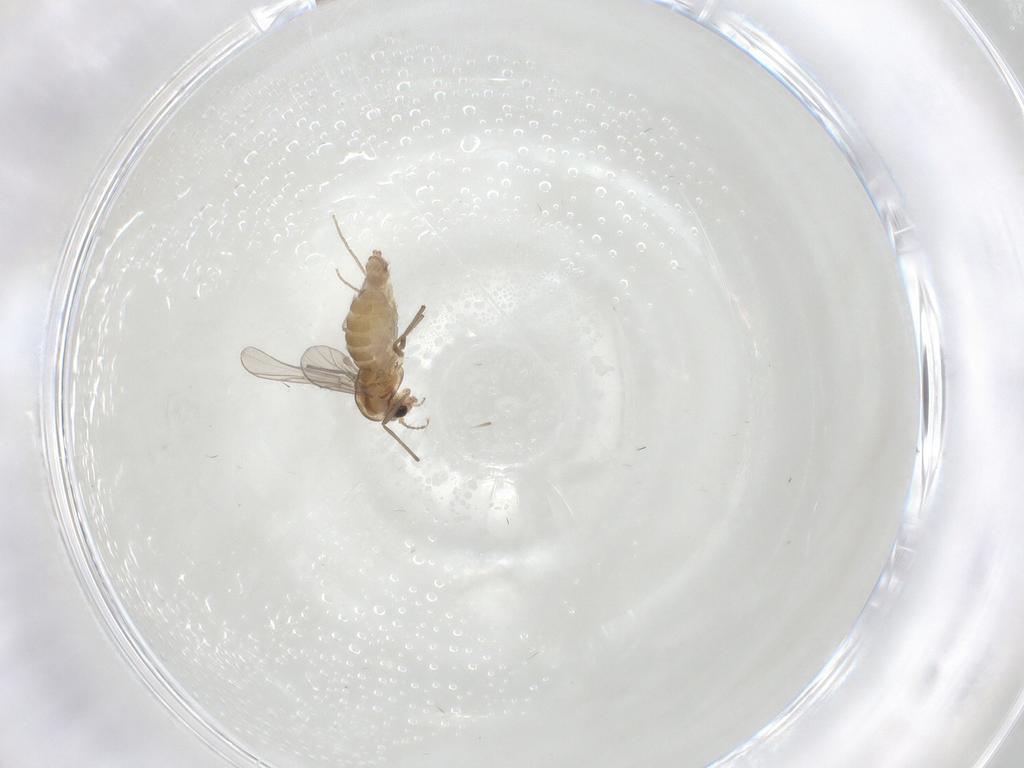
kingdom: Animalia
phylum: Arthropoda
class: Insecta
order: Diptera
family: Chironomidae
